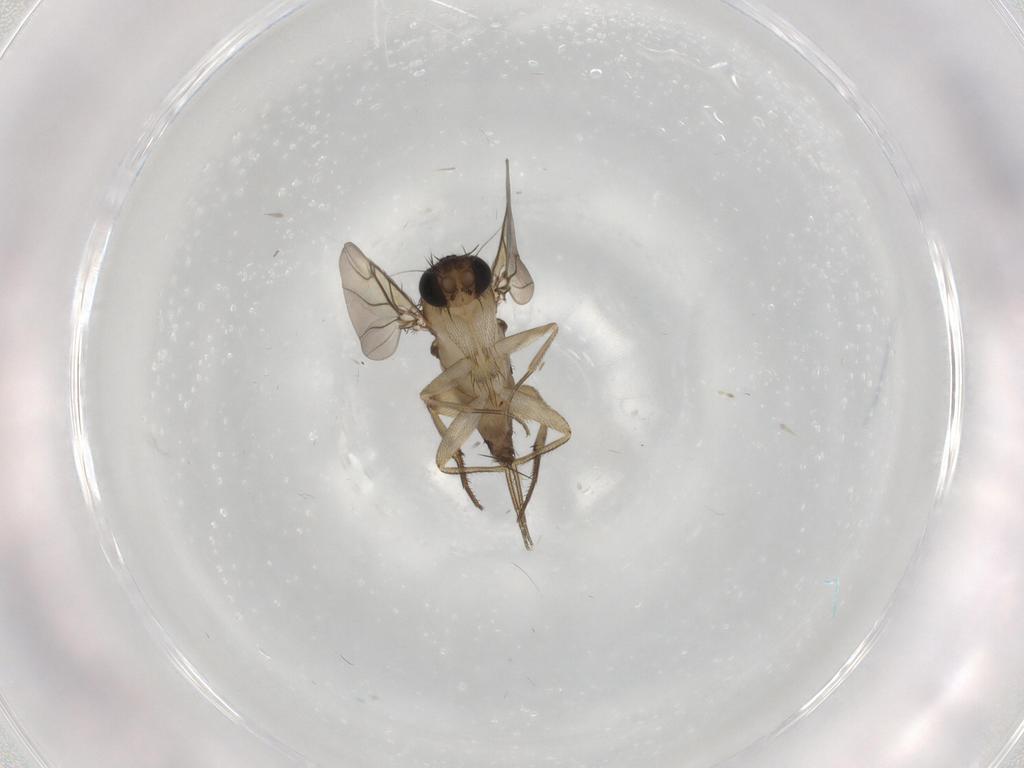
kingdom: Animalia
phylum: Arthropoda
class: Insecta
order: Diptera
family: Phoridae
